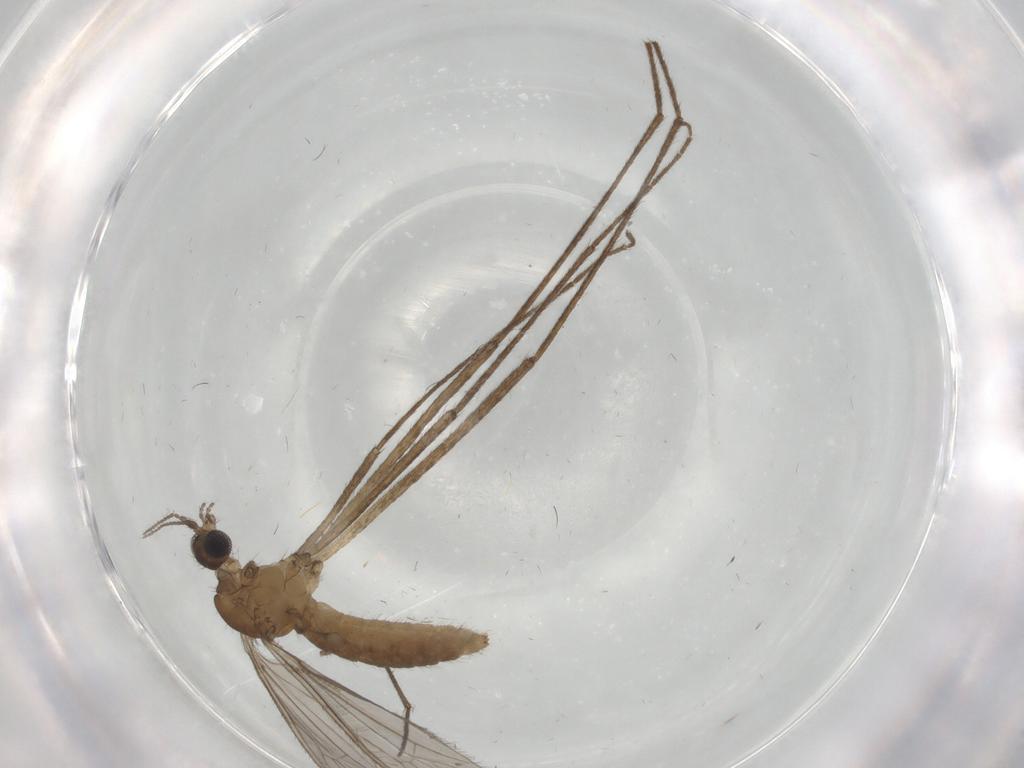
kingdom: Animalia
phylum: Arthropoda
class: Insecta
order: Diptera
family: Limoniidae
